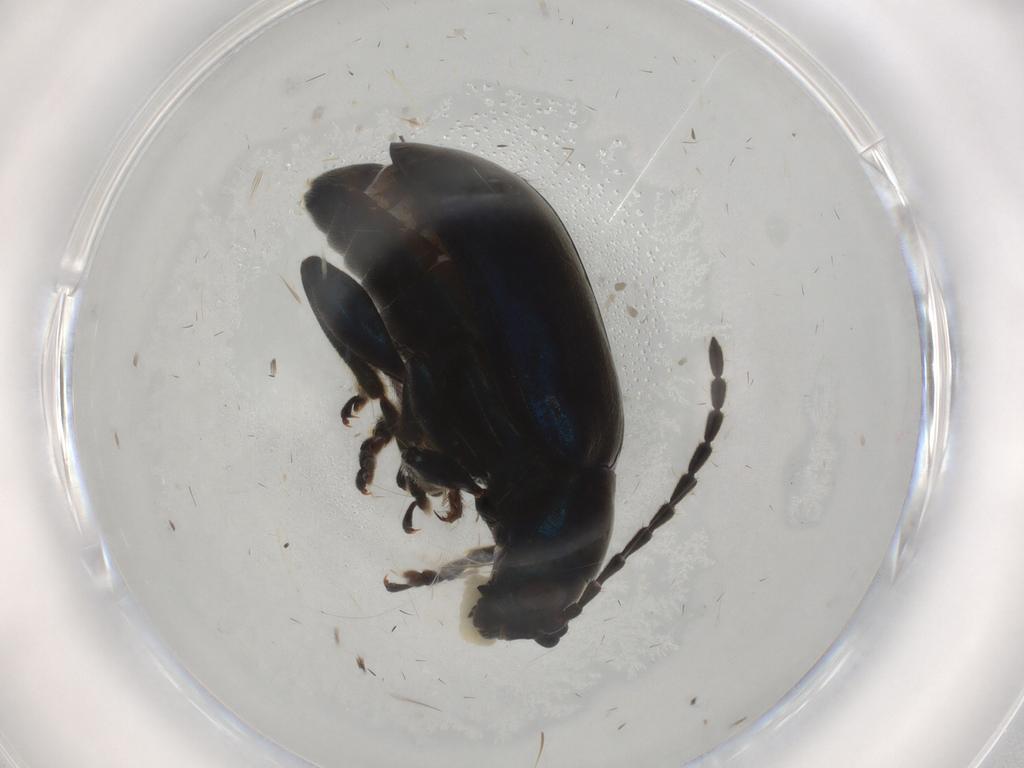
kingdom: Animalia
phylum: Arthropoda
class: Insecta
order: Coleoptera
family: Chrysomelidae
